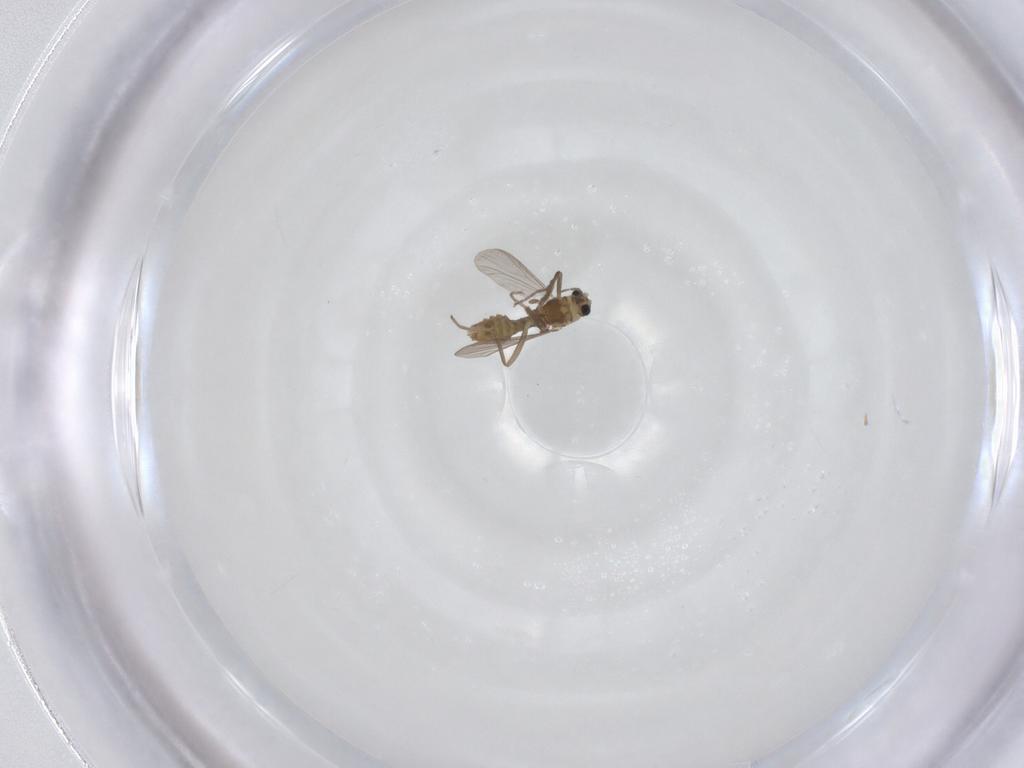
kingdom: Animalia
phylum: Arthropoda
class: Insecta
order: Diptera
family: Chironomidae
